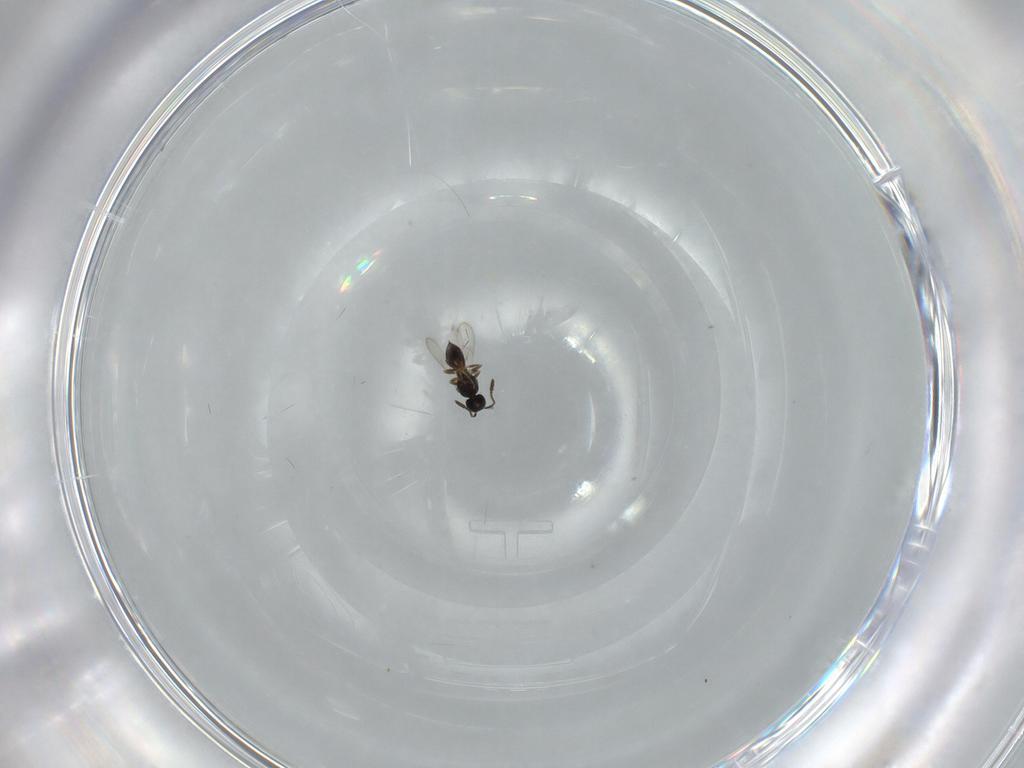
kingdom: Animalia
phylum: Arthropoda
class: Insecta
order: Hymenoptera
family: Scelionidae
